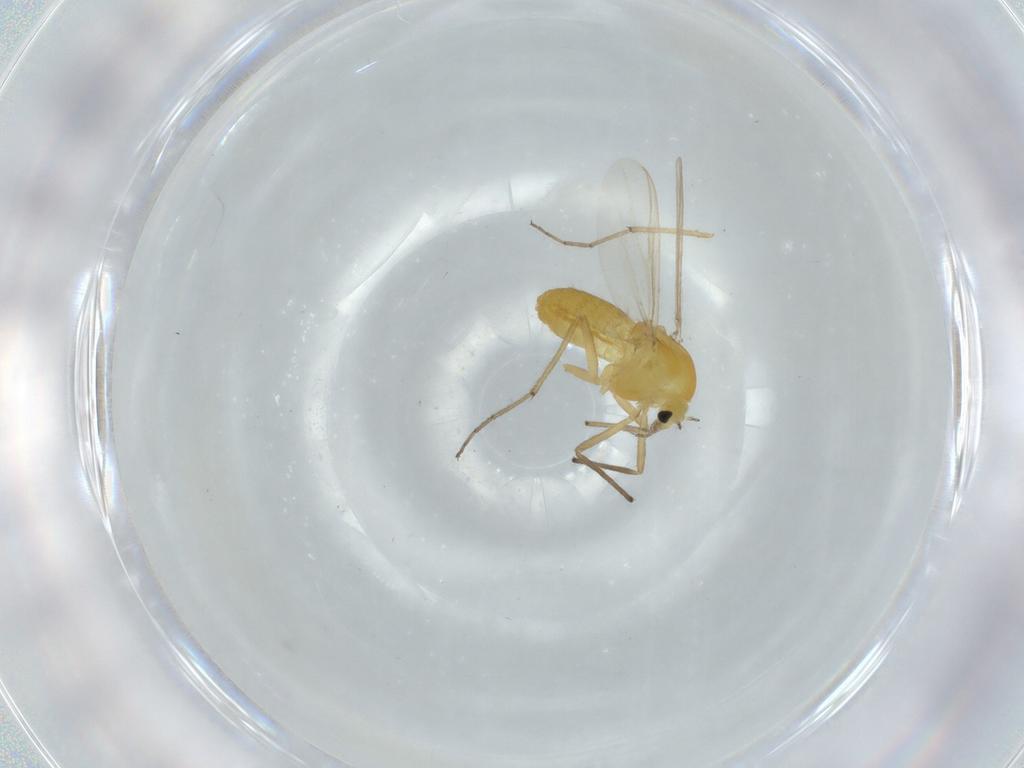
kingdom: Animalia
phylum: Arthropoda
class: Insecta
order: Diptera
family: Chironomidae
